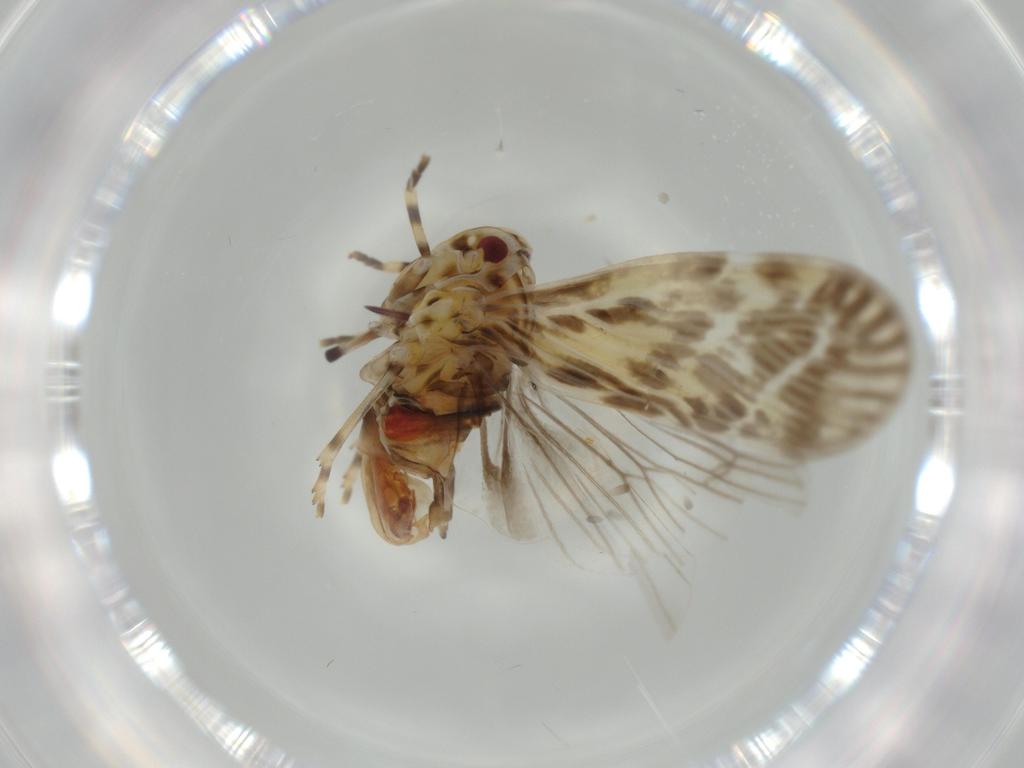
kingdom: Animalia
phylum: Arthropoda
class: Insecta
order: Hemiptera
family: Derbidae
